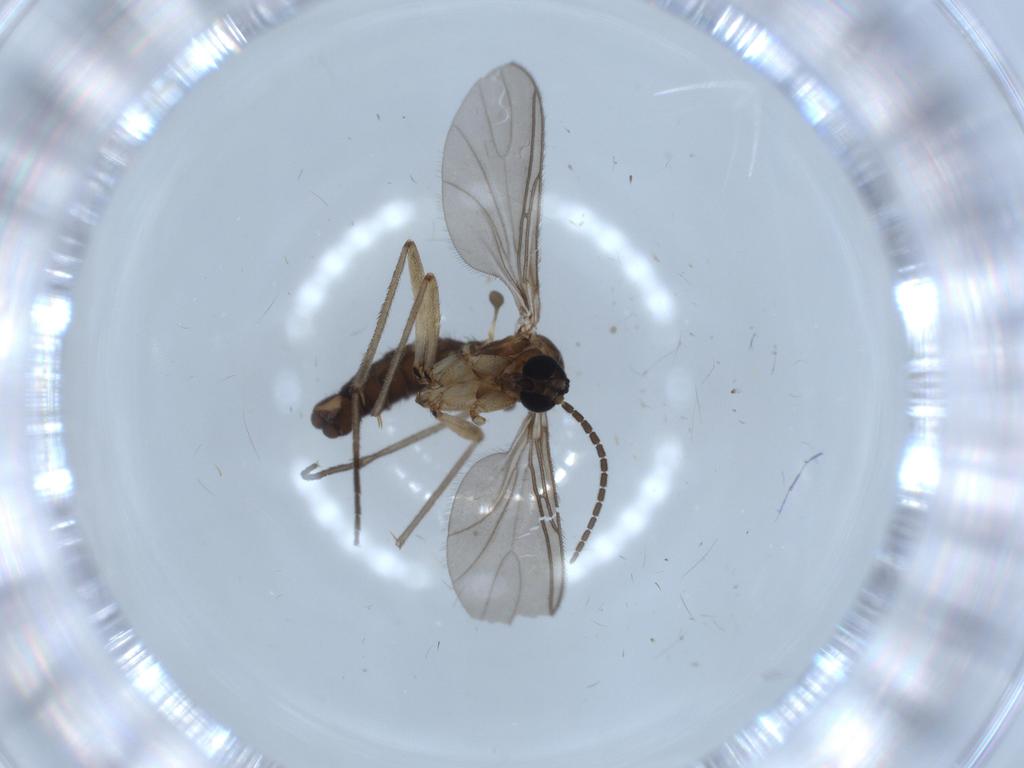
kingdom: Animalia
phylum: Arthropoda
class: Insecta
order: Diptera
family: Sciaridae
